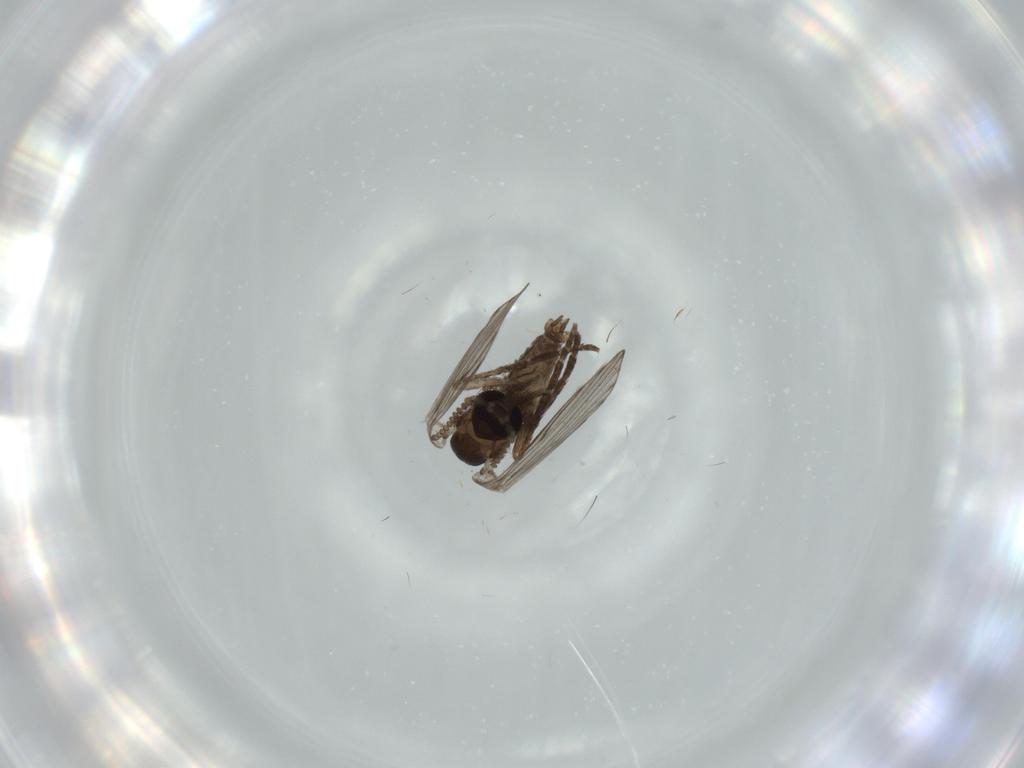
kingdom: Animalia
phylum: Arthropoda
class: Insecta
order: Diptera
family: Psychodidae
